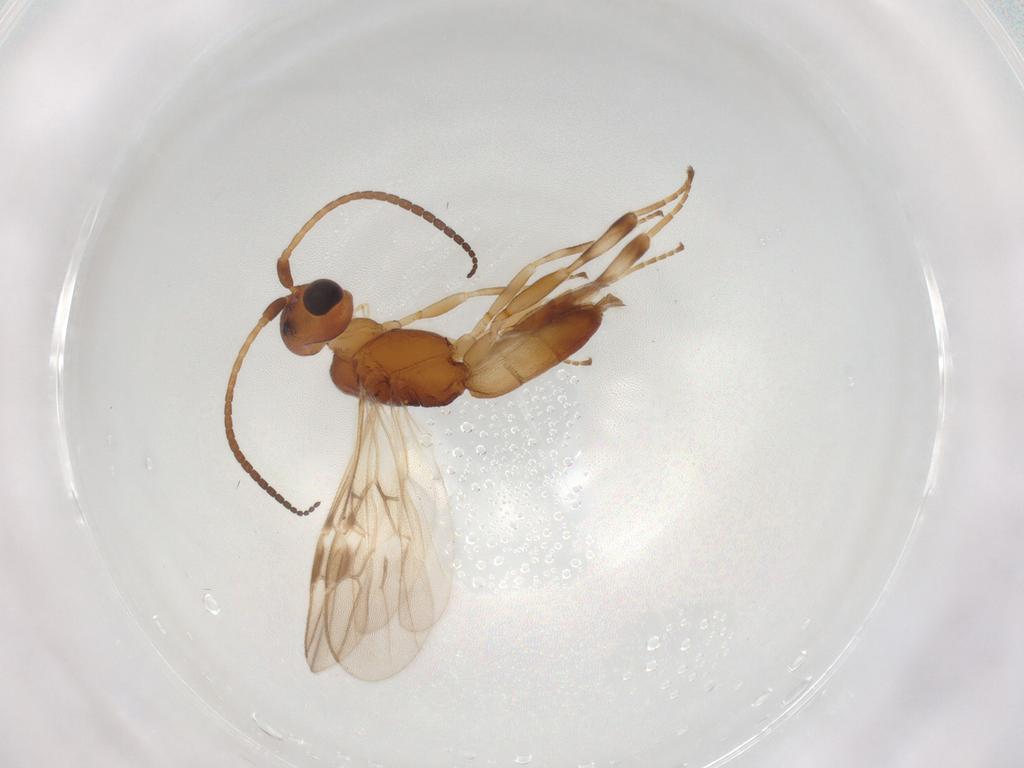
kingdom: Animalia
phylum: Arthropoda
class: Insecta
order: Hymenoptera
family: Braconidae
